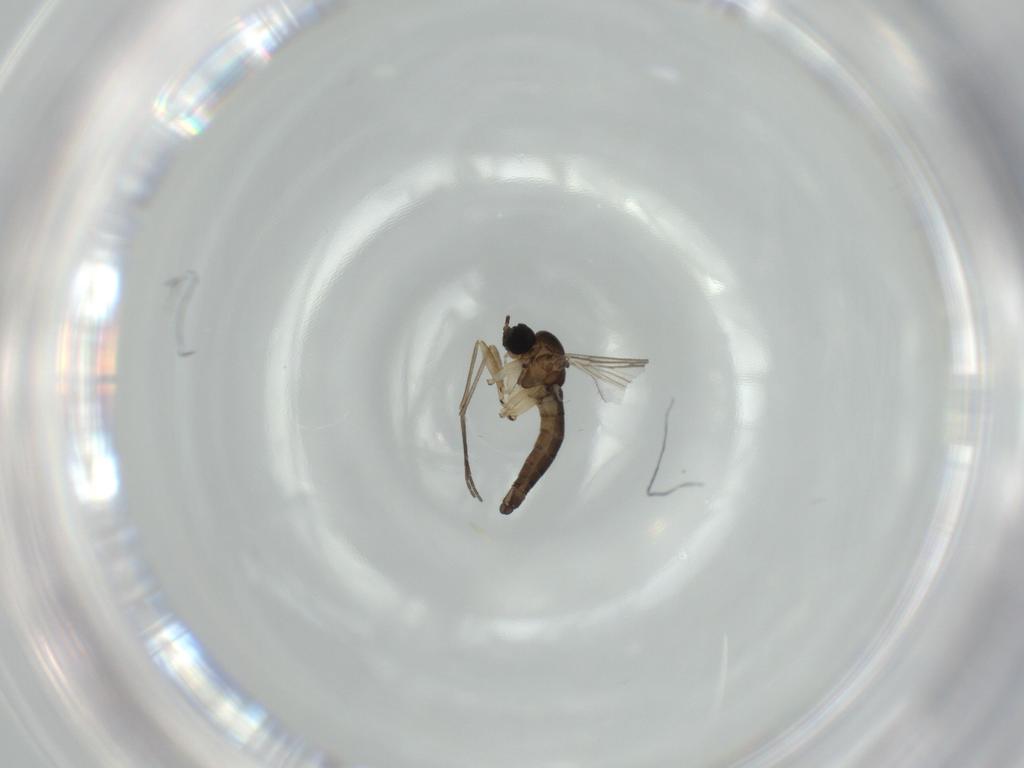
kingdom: Animalia
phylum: Arthropoda
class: Insecta
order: Diptera
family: Sciaridae
